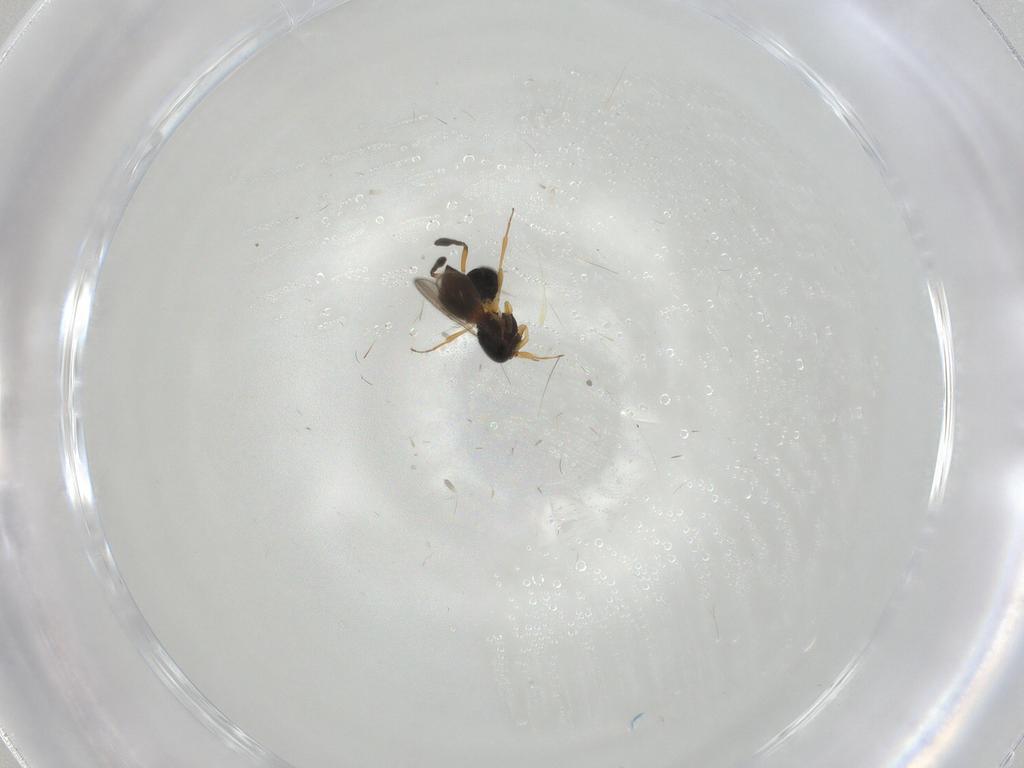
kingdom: Animalia
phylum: Arthropoda
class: Insecta
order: Hymenoptera
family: Scelionidae
